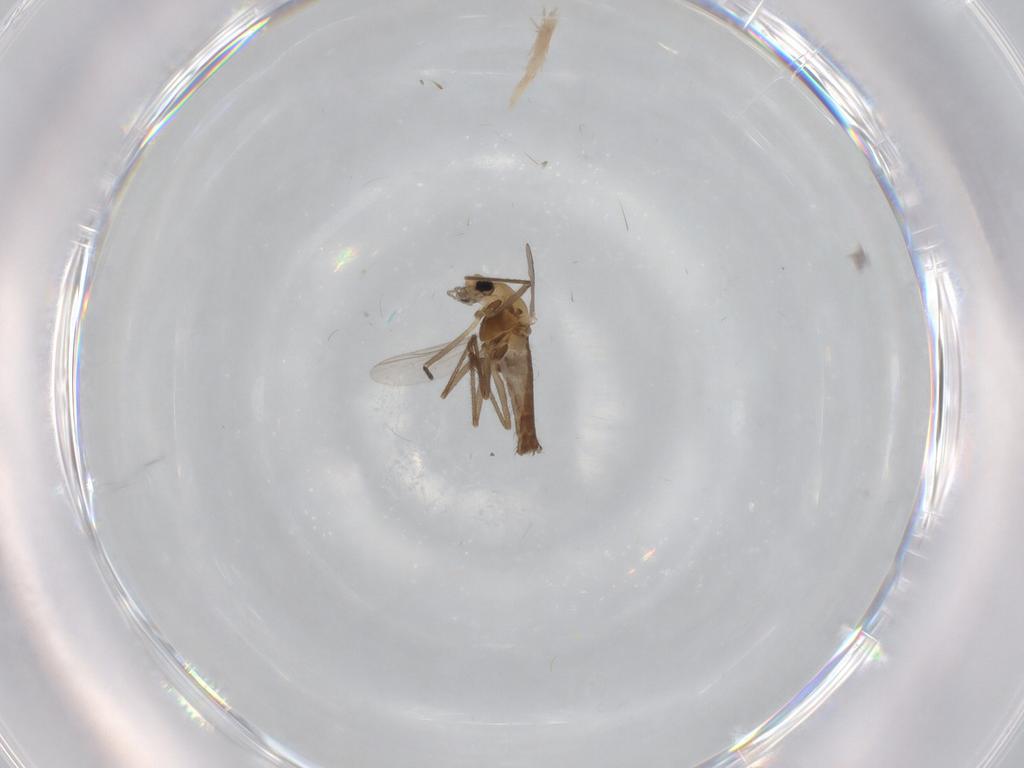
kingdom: Animalia
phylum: Arthropoda
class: Insecta
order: Diptera
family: Chironomidae
